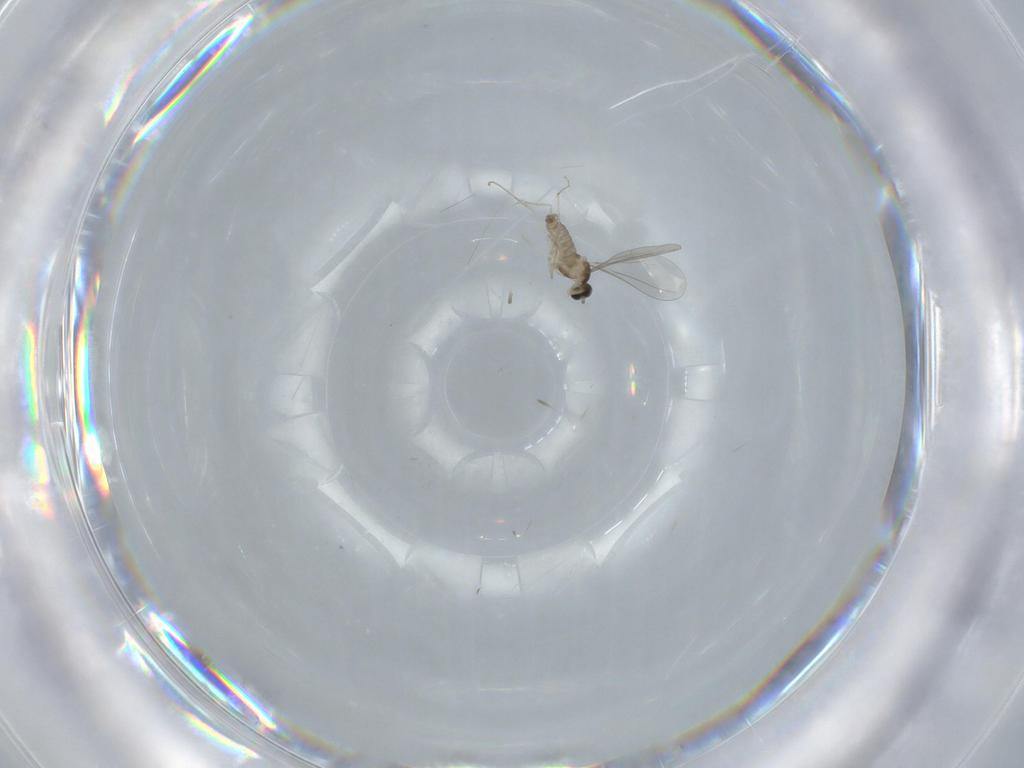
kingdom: Animalia
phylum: Arthropoda
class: Insecta
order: Diptera
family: Cecidomyiidae
